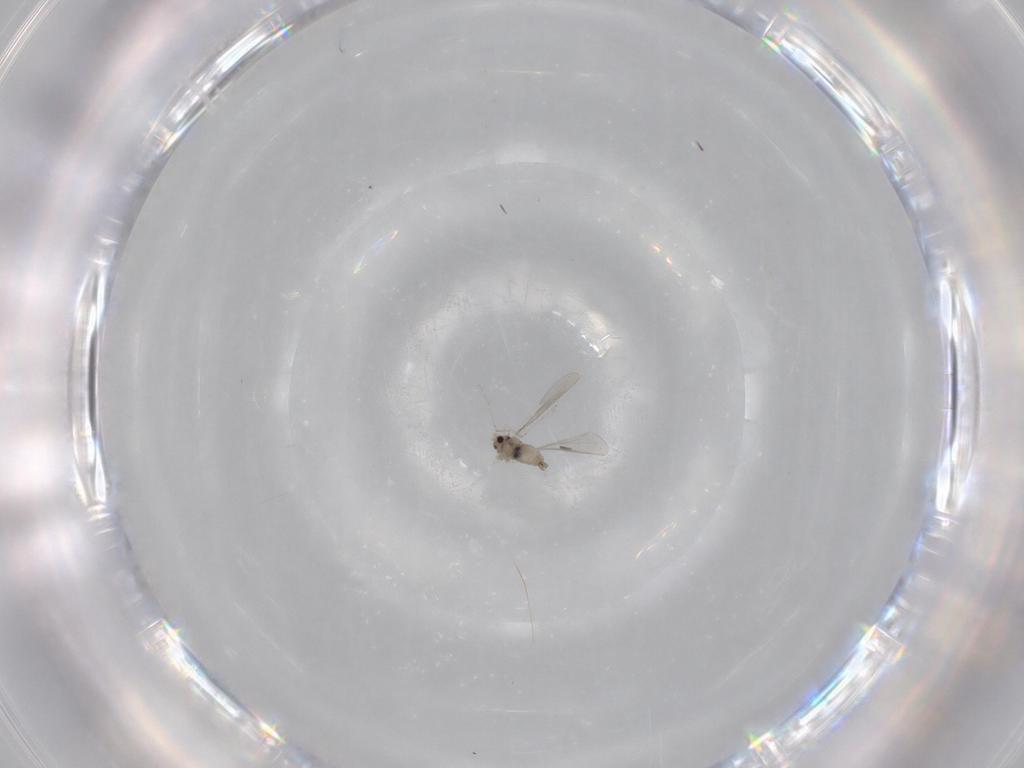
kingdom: Animalia
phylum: Arthropoda
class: Insecta
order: Diptera
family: Cecidomyiidae
